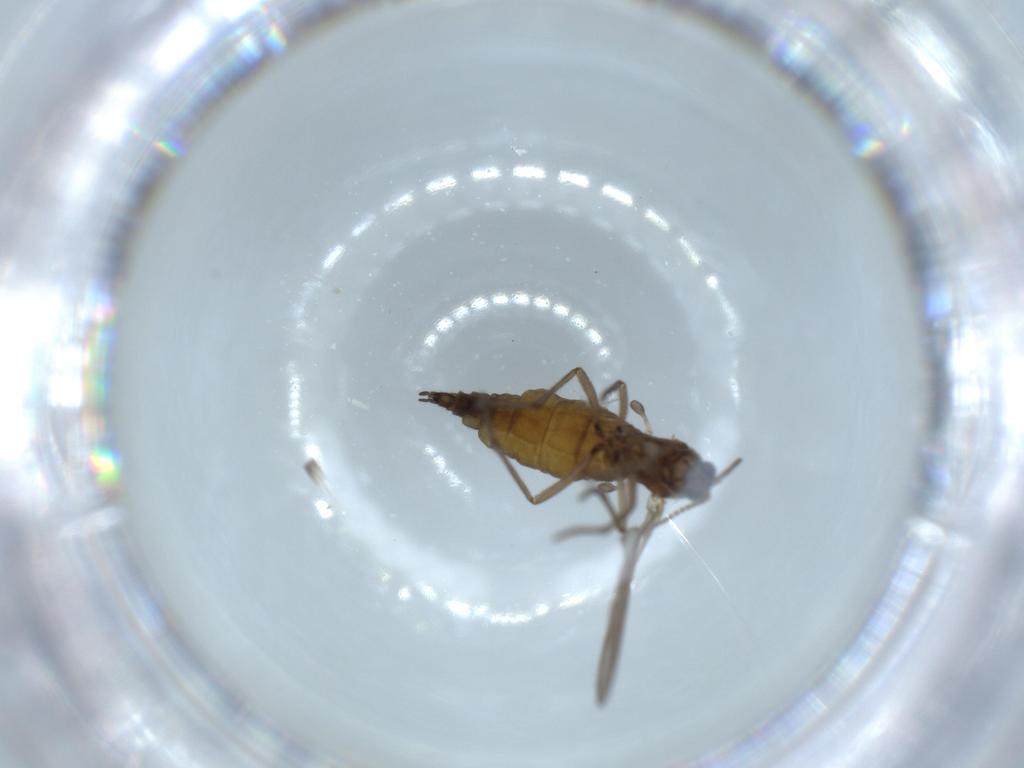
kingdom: Animalia
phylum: Arthropoda
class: Insecta
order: Diptera
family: Sciaridae
